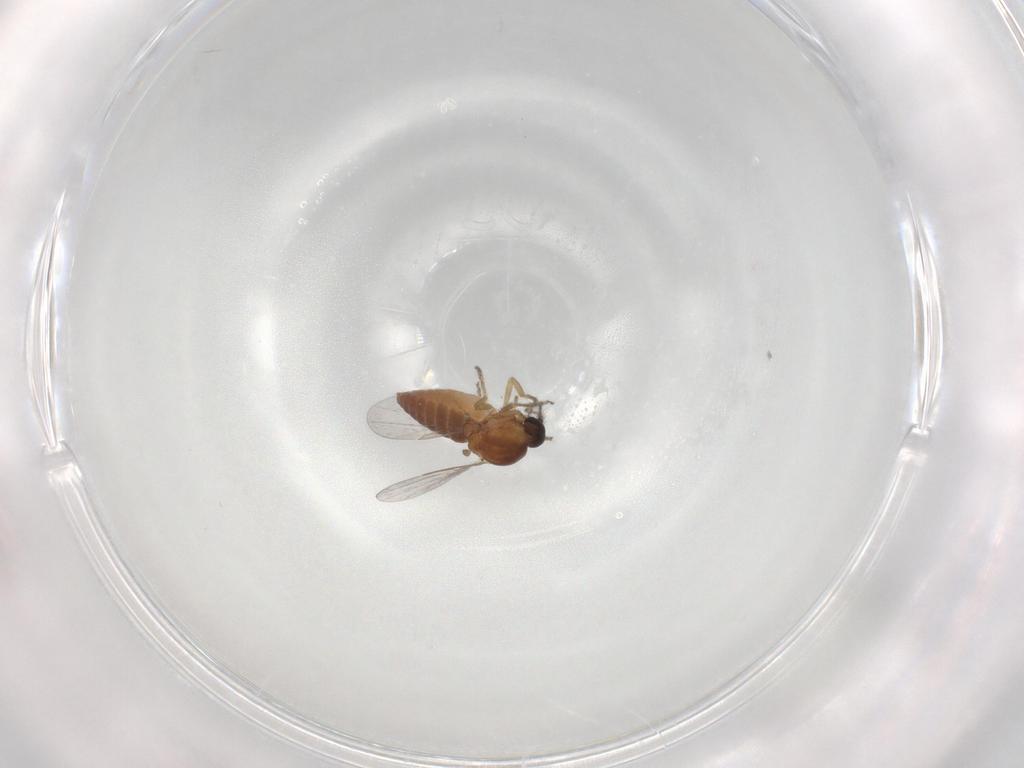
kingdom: Animalia
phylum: Arthropoda
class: Insecta
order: Diptera
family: Ceratopogonidae
